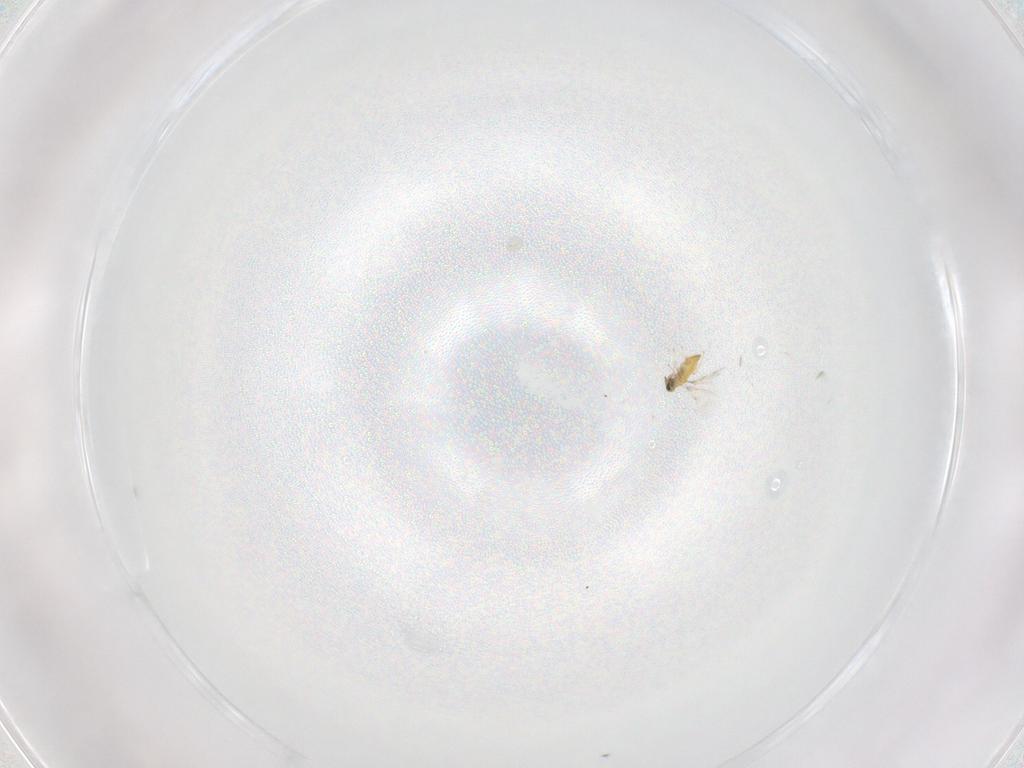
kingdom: Animalia
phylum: Arthropoda
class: Insecta
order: Hymenoptera
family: Trichogrammatidae
